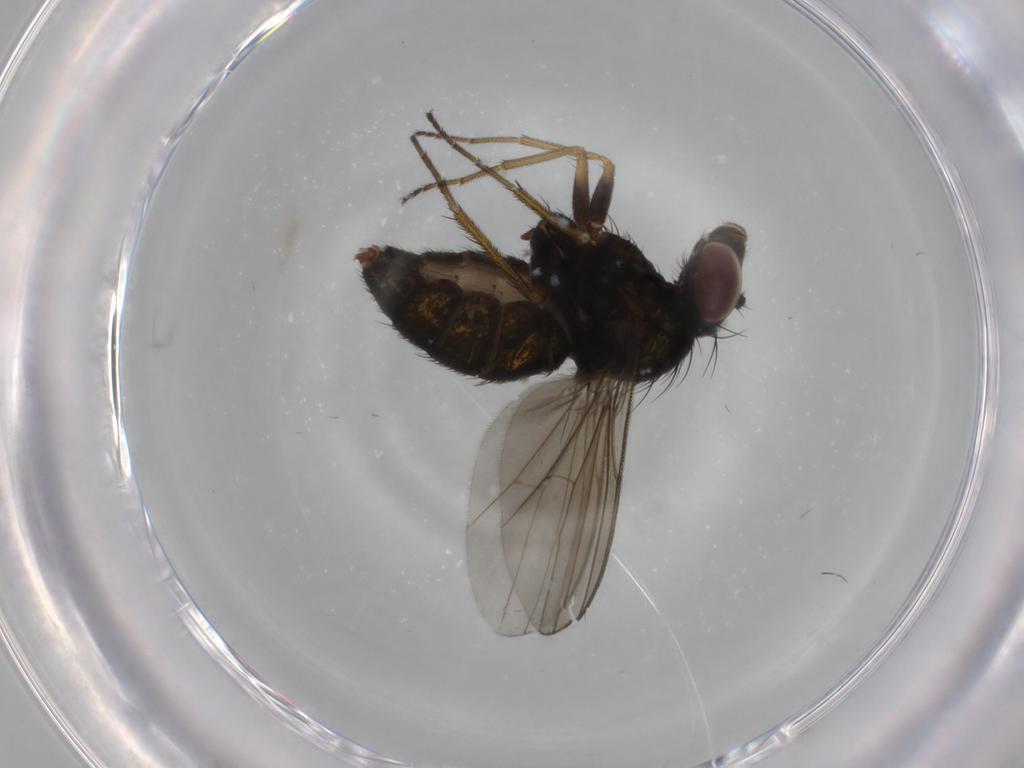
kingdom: Animalia
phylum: Arthropoda
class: Insecta
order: Diptera
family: Dolichopodidae
